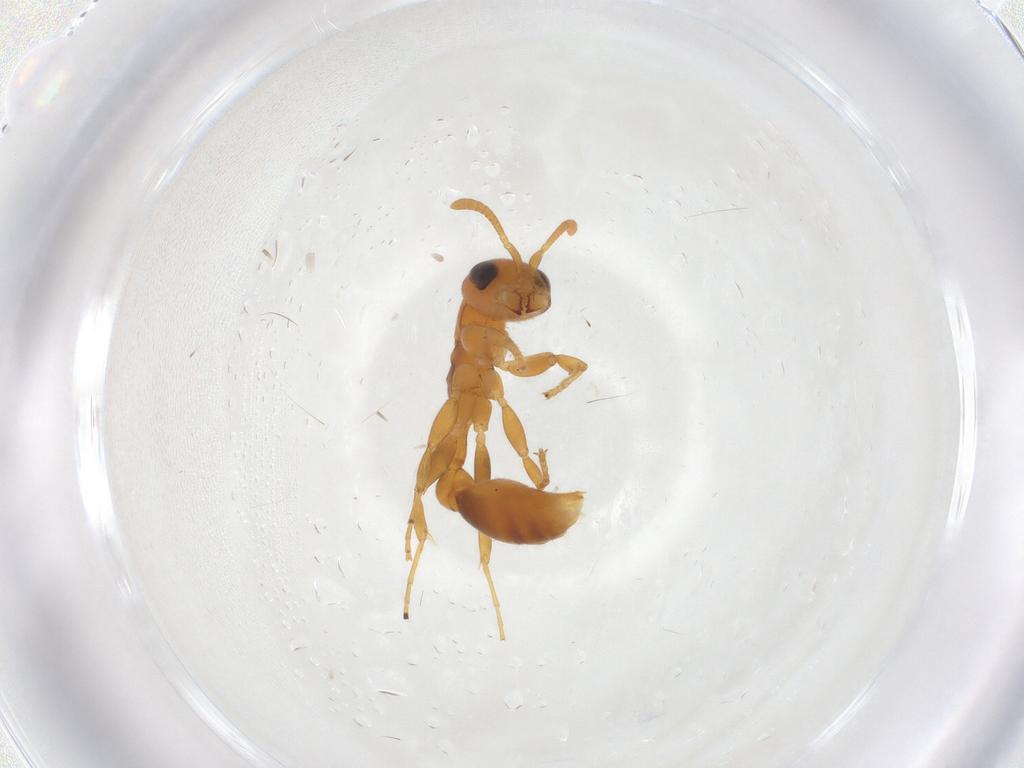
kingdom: Animalia
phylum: Arthropoda
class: Insecta
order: Hymenoptera
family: Formicidae
